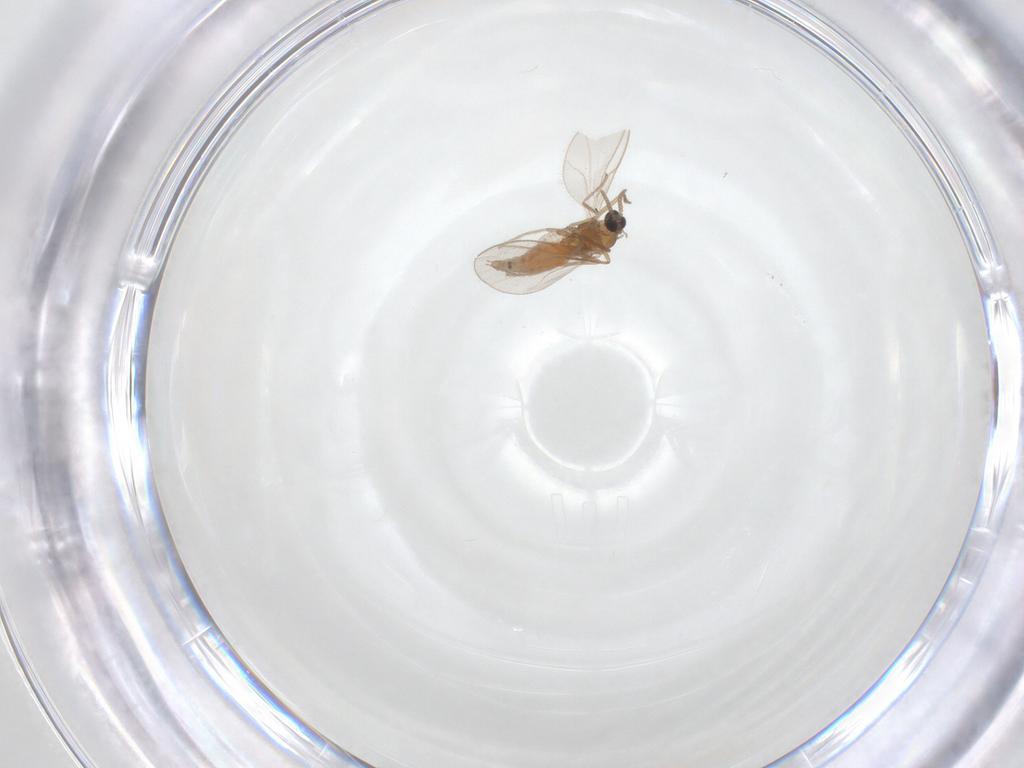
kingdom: Animalia
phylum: Arthropoda
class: Insecta
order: Diptera
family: Cecidomyiidae
